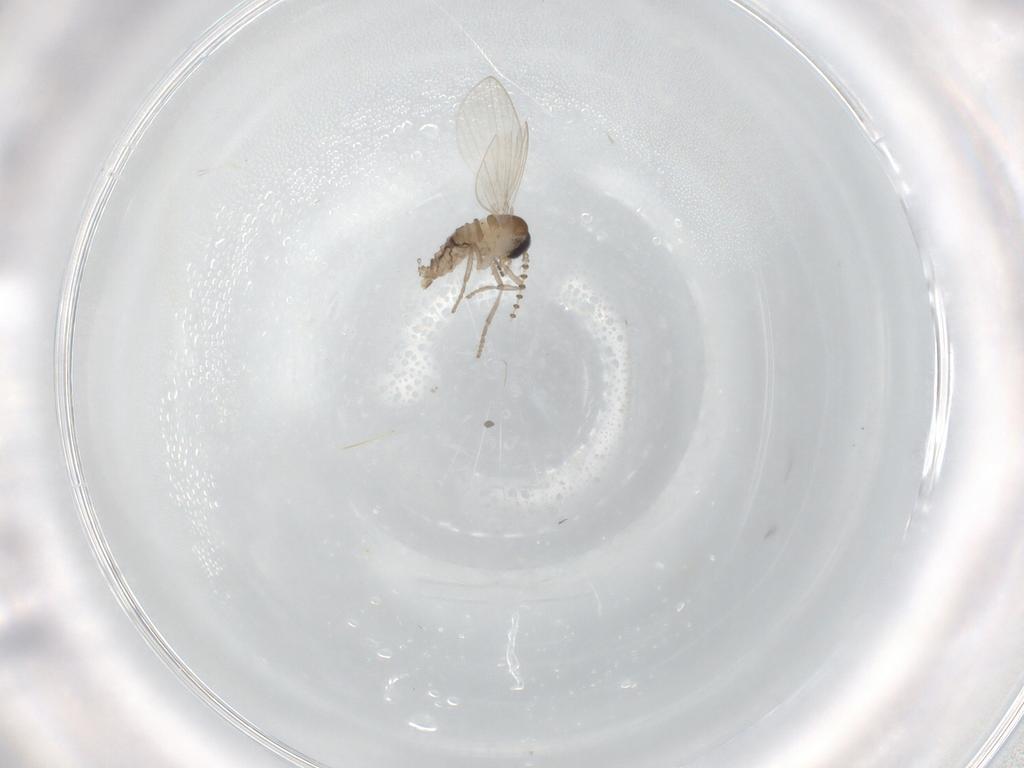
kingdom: Animalia
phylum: Arthropoda
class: Insecta
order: Diptera
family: Psychodidae
